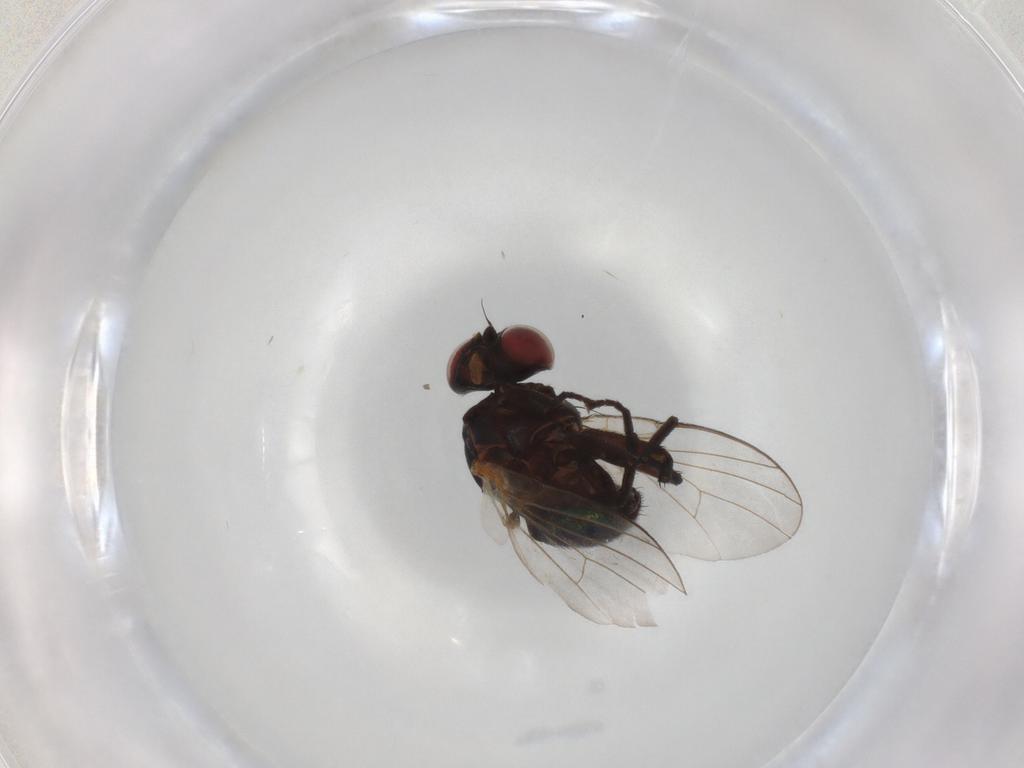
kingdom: Animalia
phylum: Arthropoda
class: Insecta
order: Diptera
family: Agromyzidae
